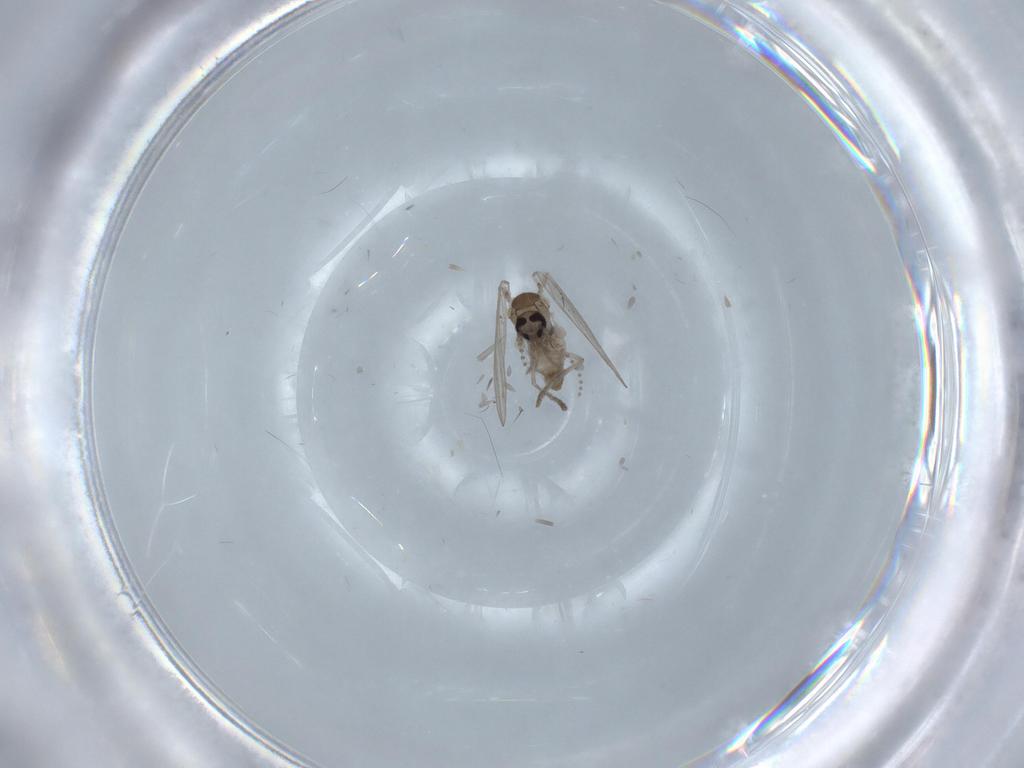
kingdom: Animalia
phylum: Arthropoda
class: Insecta
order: Diptera
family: Psychodidae
